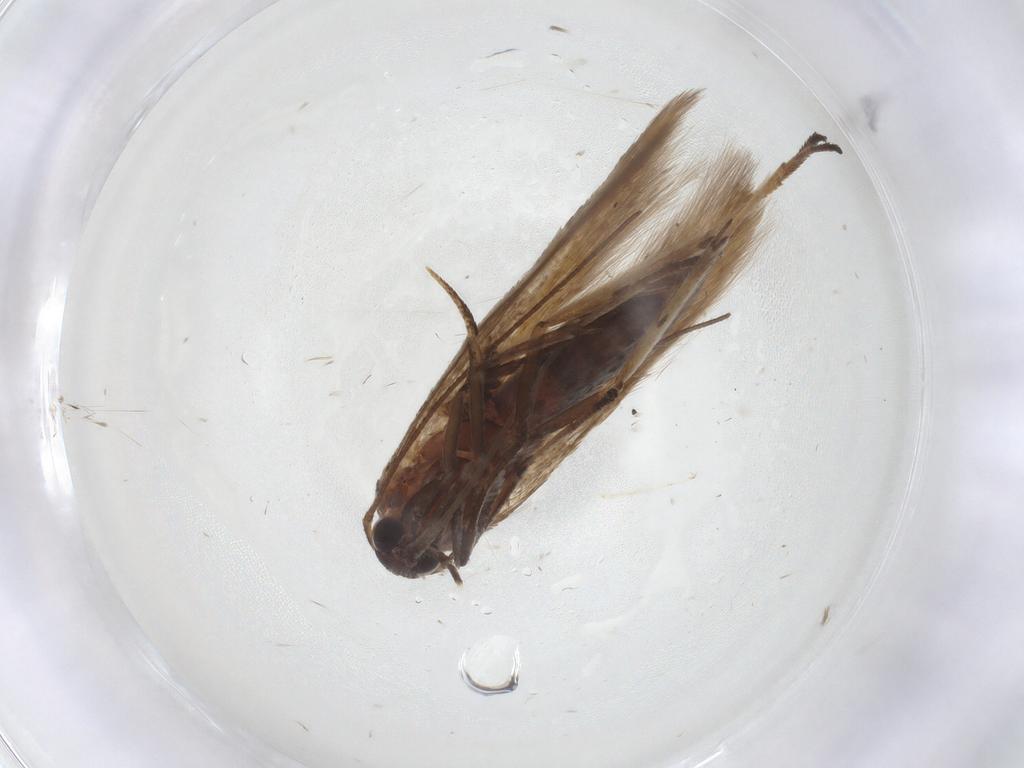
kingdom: Animalia
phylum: Arthropoda
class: Insecta
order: Lepidoptera
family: Scythrididae
